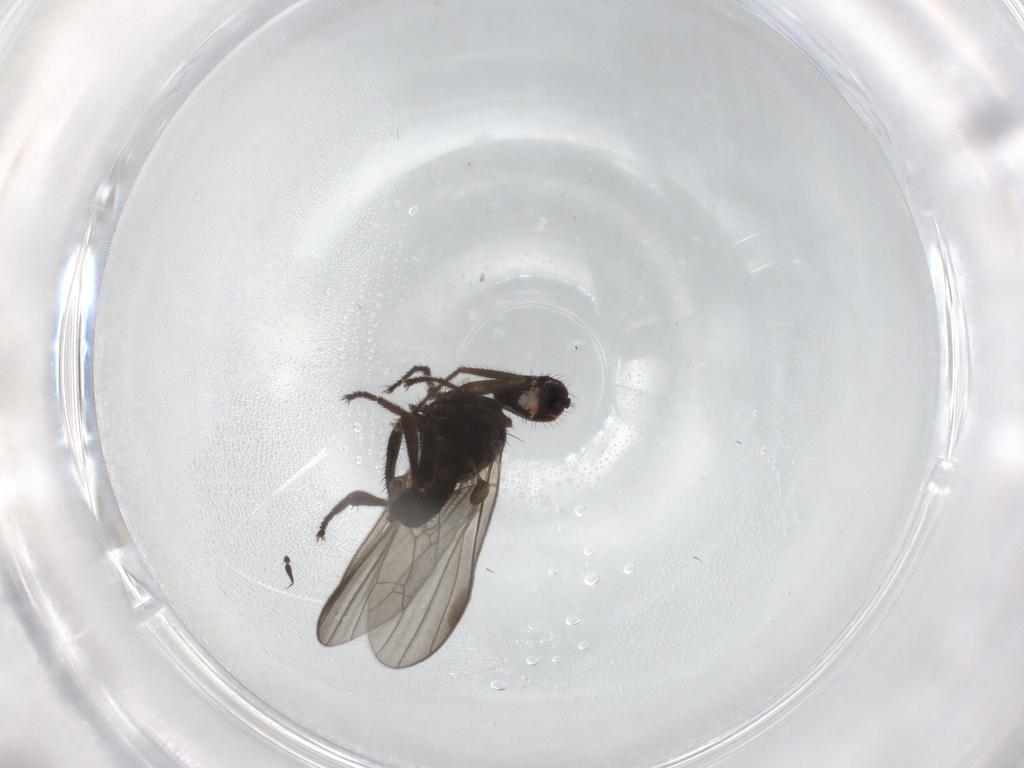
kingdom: Animalia
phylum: Arthropoda
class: Insecta
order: Diptera
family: Hybotidae
